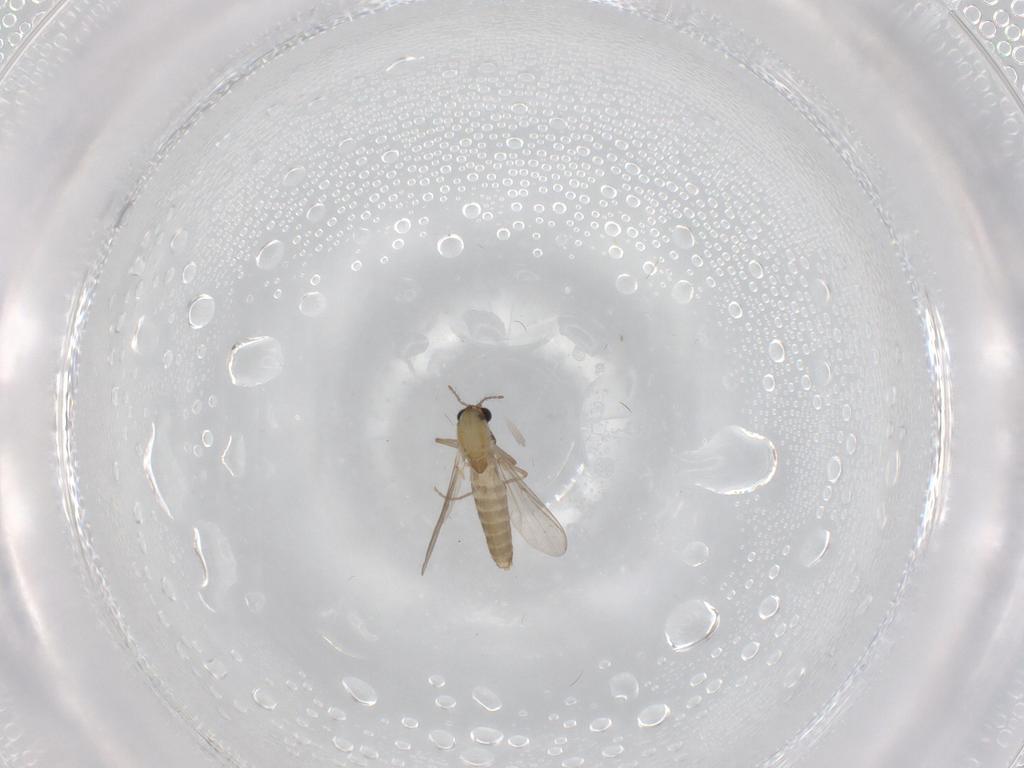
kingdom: Animalia
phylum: Arthropoda
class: Insecta
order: Diptera
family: Chironomidae
